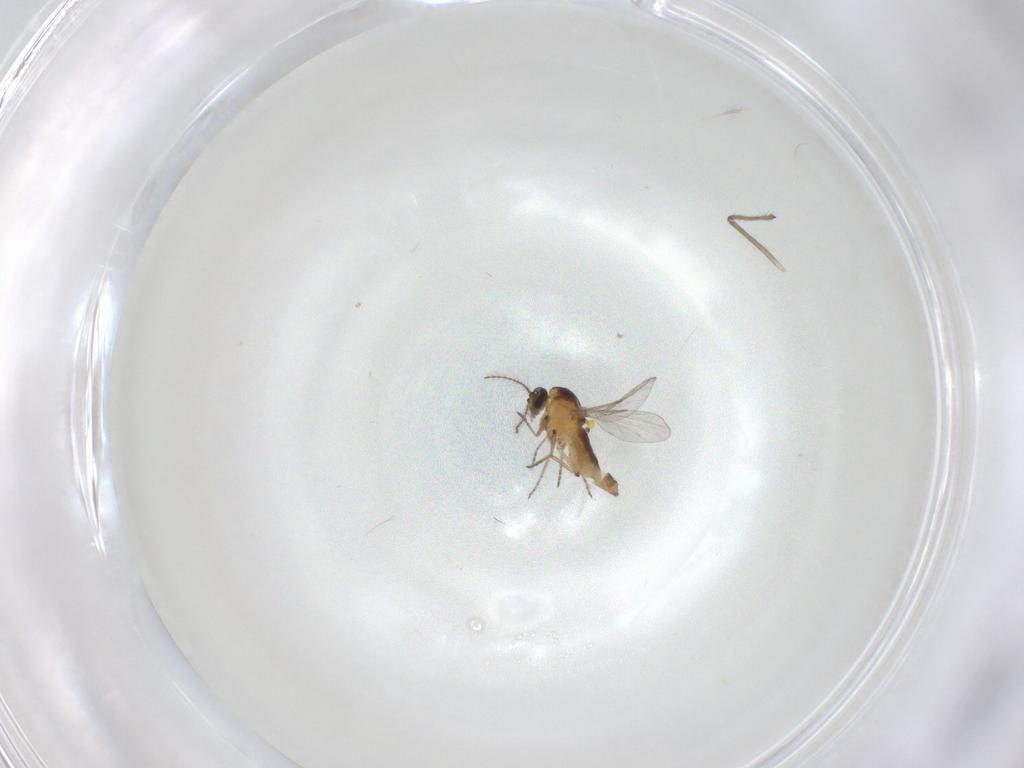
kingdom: Animalia
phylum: Arthropoda
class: Insecta
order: Diptera
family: Ceratopogonidae
